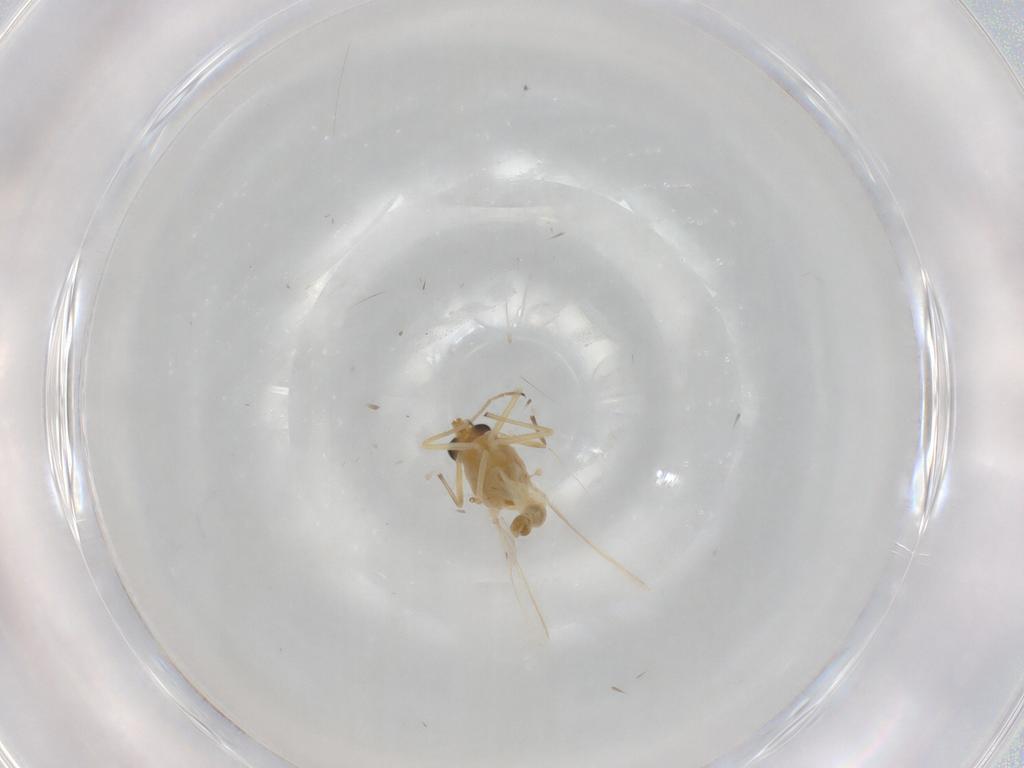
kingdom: Animalia
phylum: Arthropoda
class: Insecta
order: Diptera
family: Chironomidae
